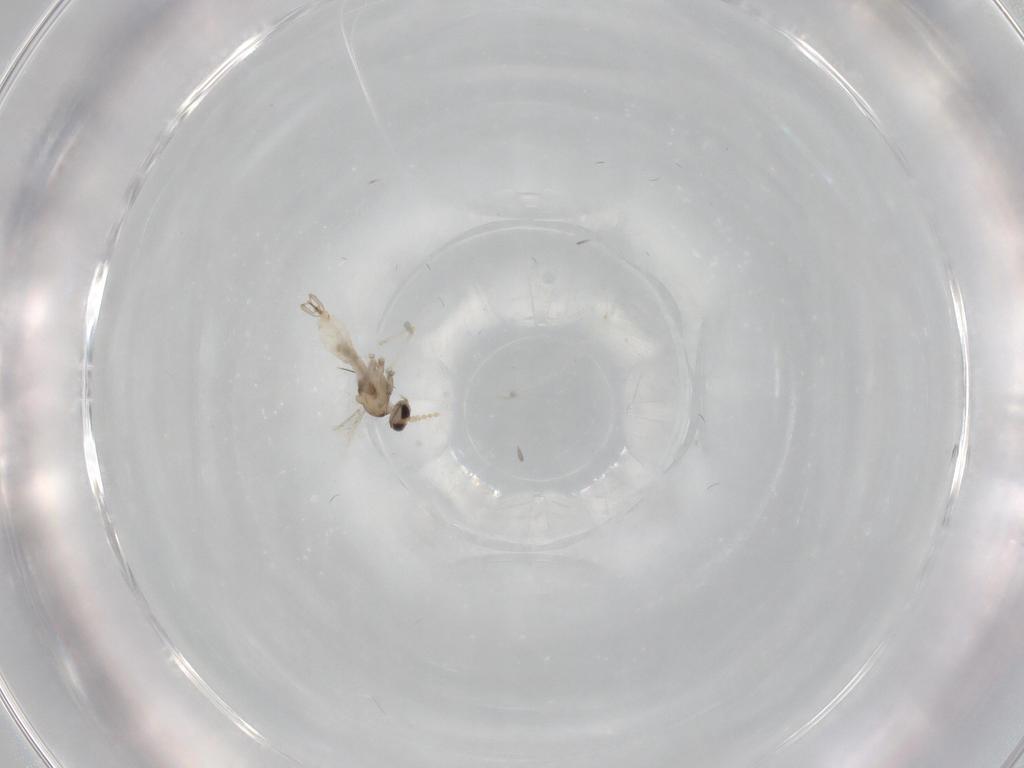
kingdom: Animalia
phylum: Arthropoda
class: Insecta
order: Diptera
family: Cecidomyiidae
